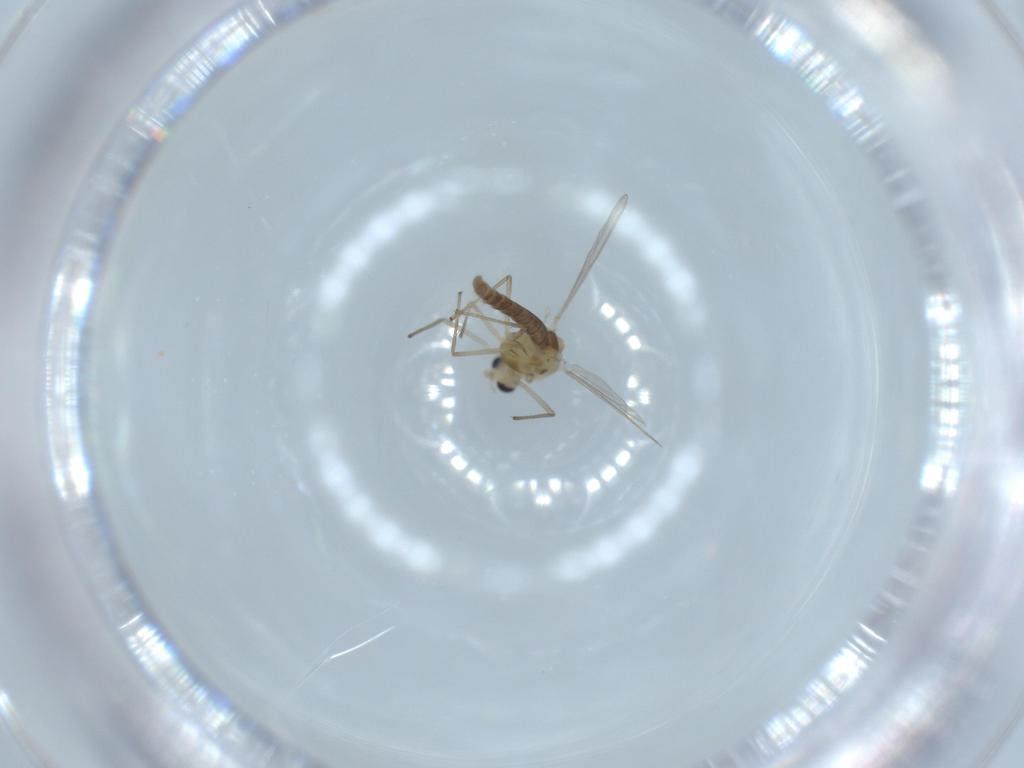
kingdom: Animalia
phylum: Arthropoda
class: Insecta
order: Diptera
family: Chironomidae
